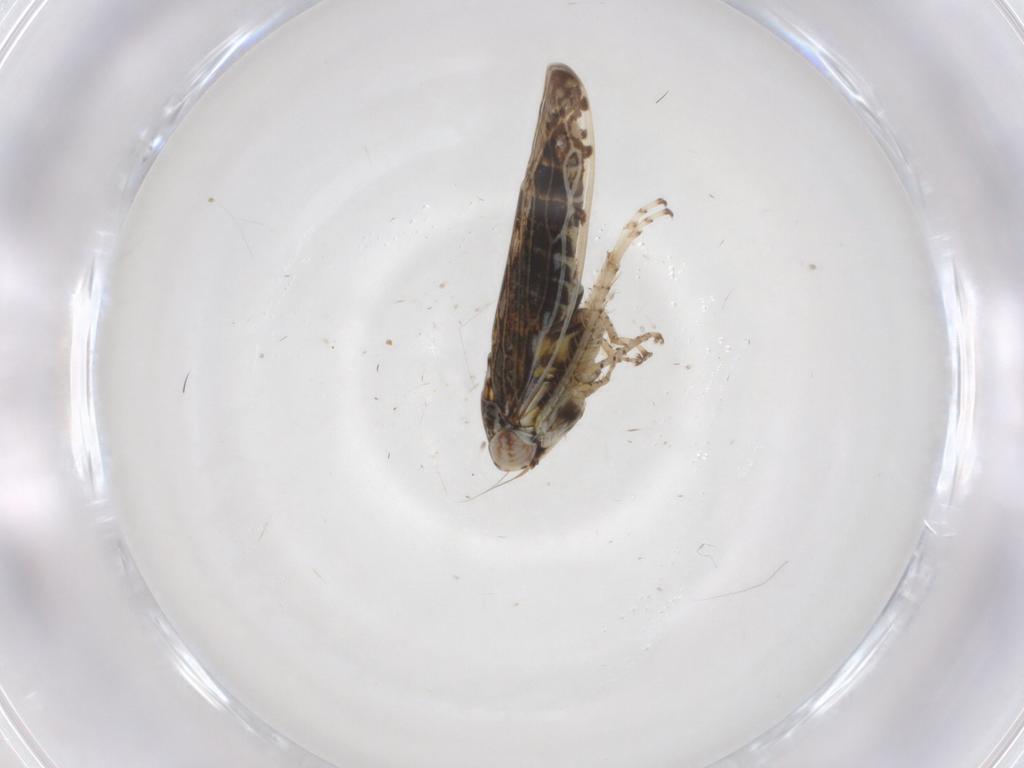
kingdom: Animalia
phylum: Arthropoda
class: Insecta
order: Hemiptera
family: Cicadellidae
